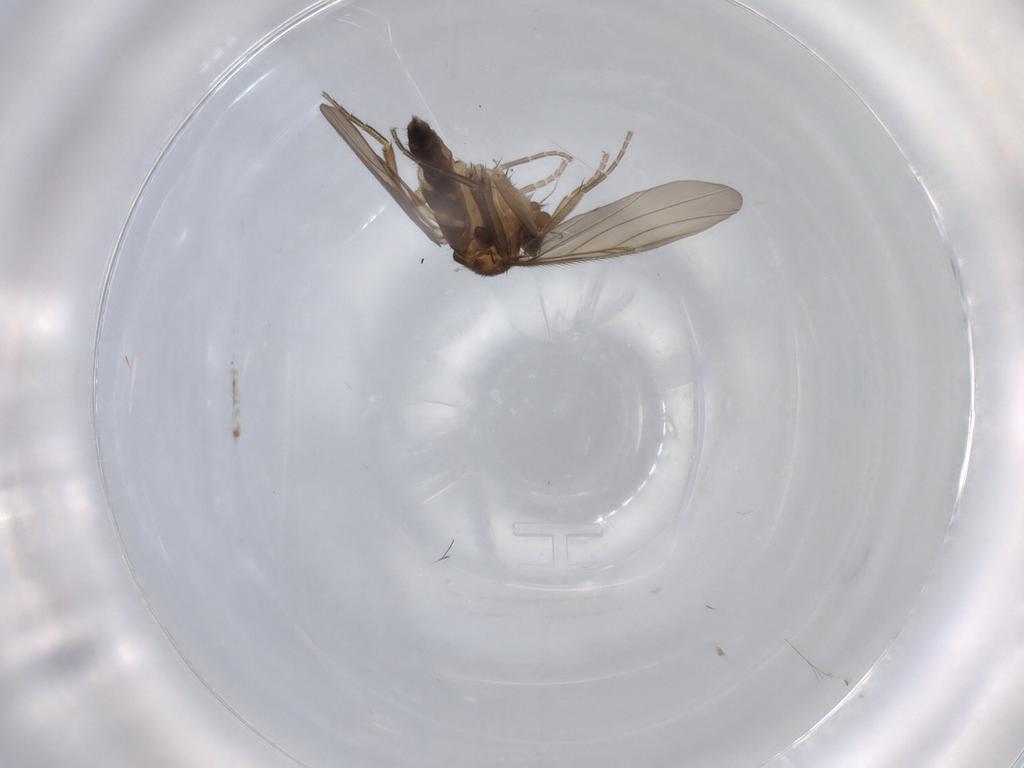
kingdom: Animalia
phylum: Arthropoda
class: Insecta
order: Diptera
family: Phoridae
